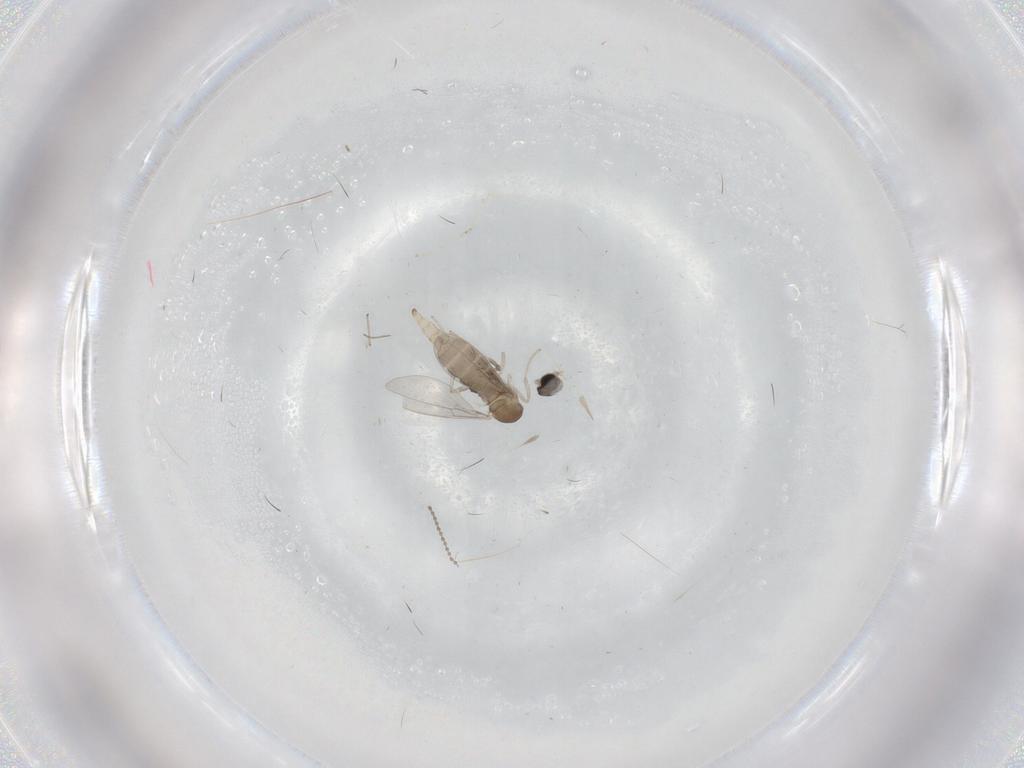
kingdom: Animalia
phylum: Arthropoda
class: Insecta
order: Diptera
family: Cecidomyiidae
